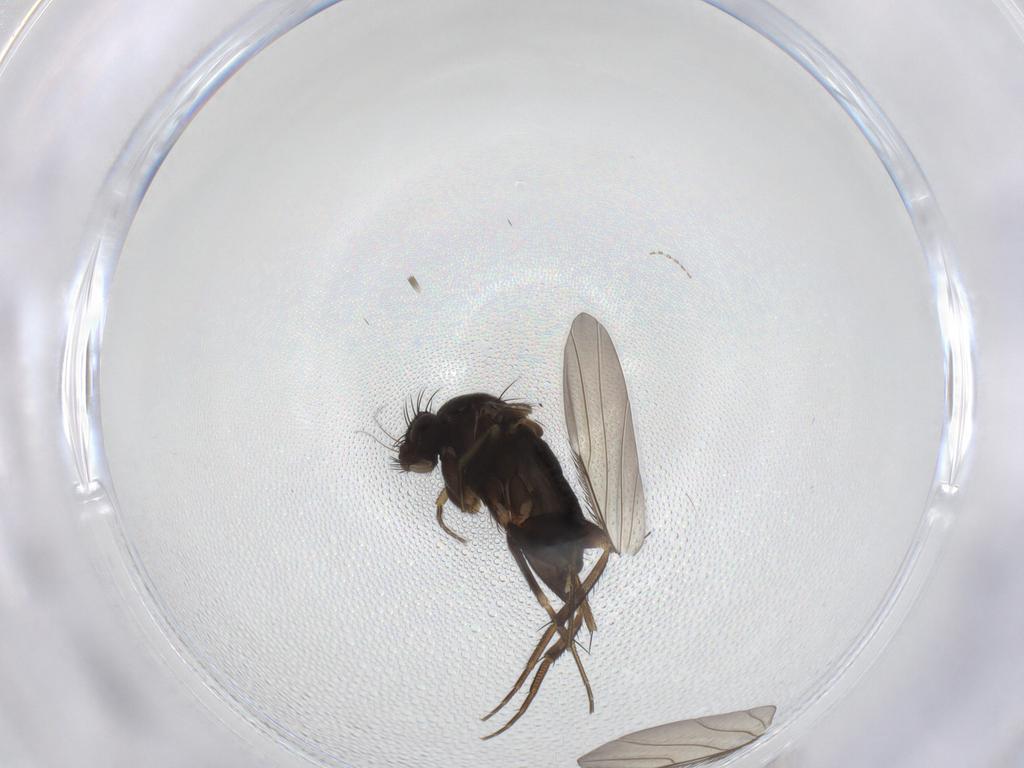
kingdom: Animalia
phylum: Arthropoda
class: Insecta
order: Diptera
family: Phoridae
